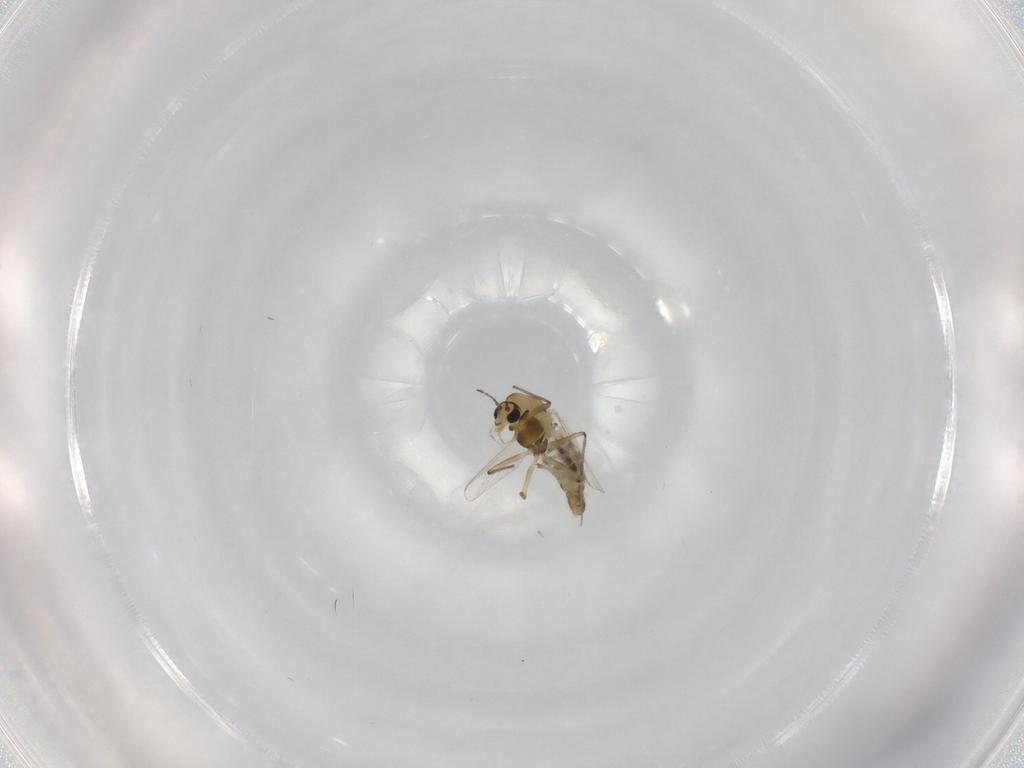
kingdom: Animalia
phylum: Arthropoda
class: Insecta
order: Diptera
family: Chironomidae
